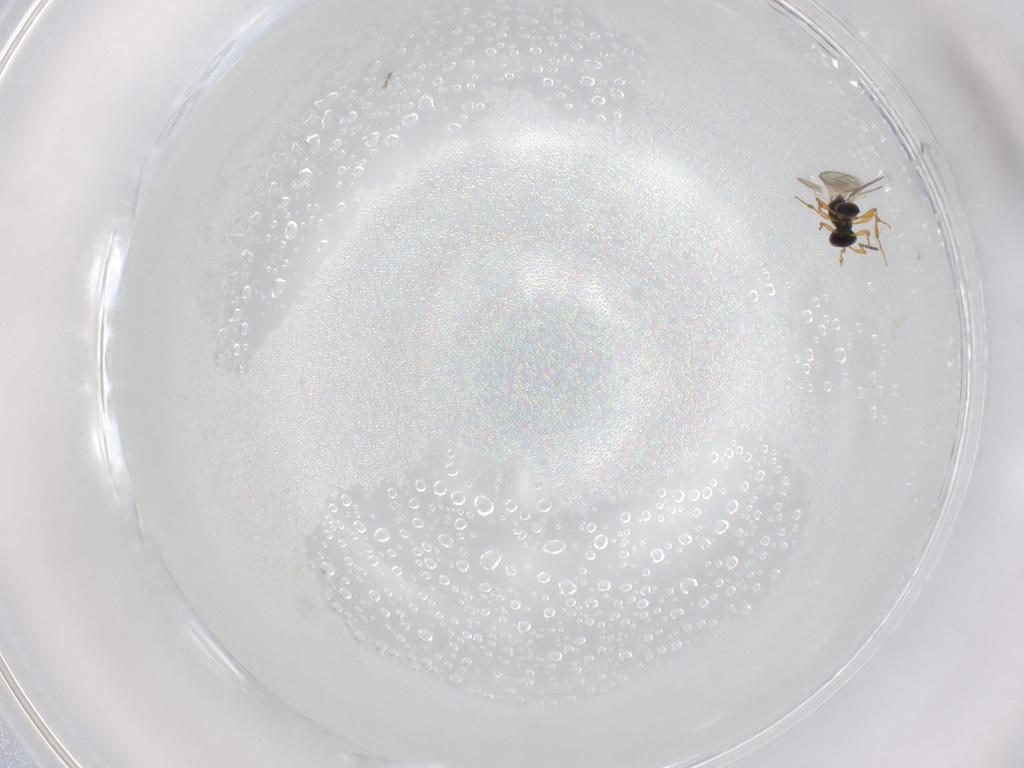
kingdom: Animalia
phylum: Arthropoda
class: Insecta
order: Hymenoptera
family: Platygastridae
